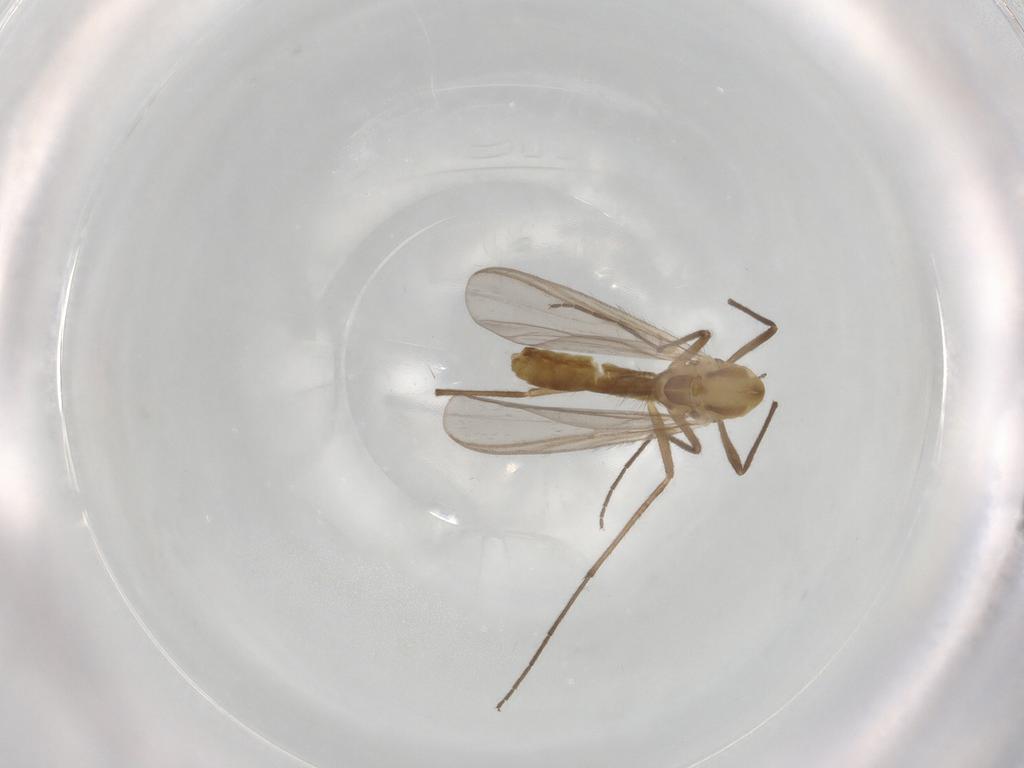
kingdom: Animalia
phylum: Arthropoda
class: Insecta
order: Diptera
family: Chironomidae
